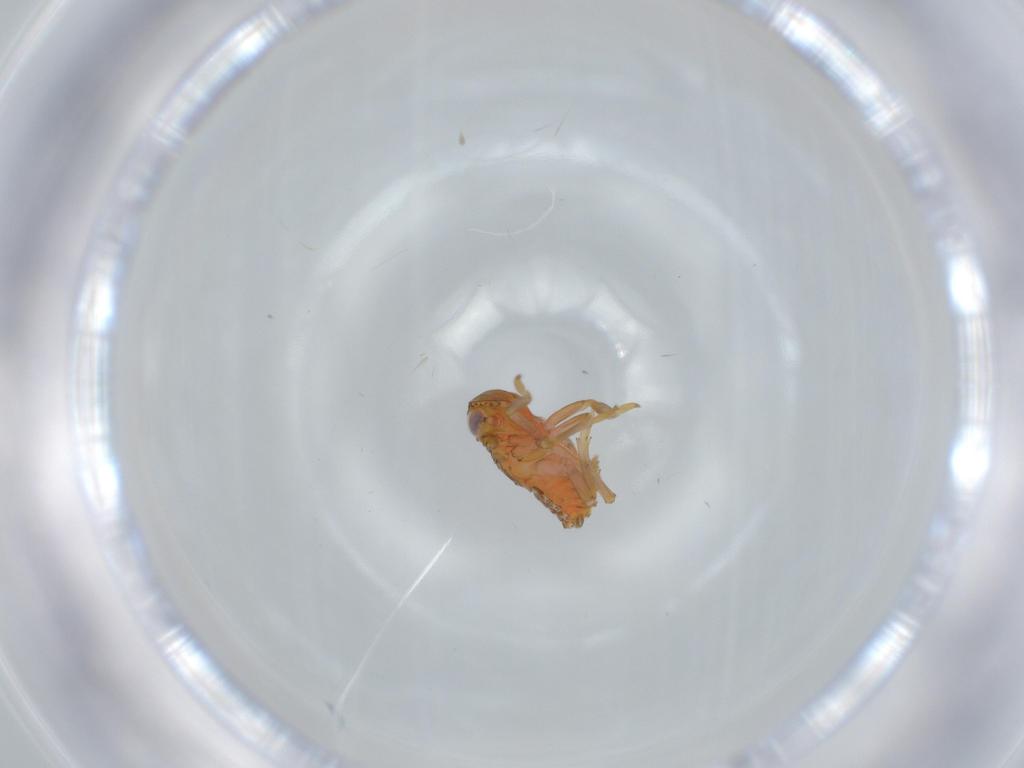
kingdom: Animalia
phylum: Arthropoda
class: Insecta
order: Hemiptera
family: Issidae
